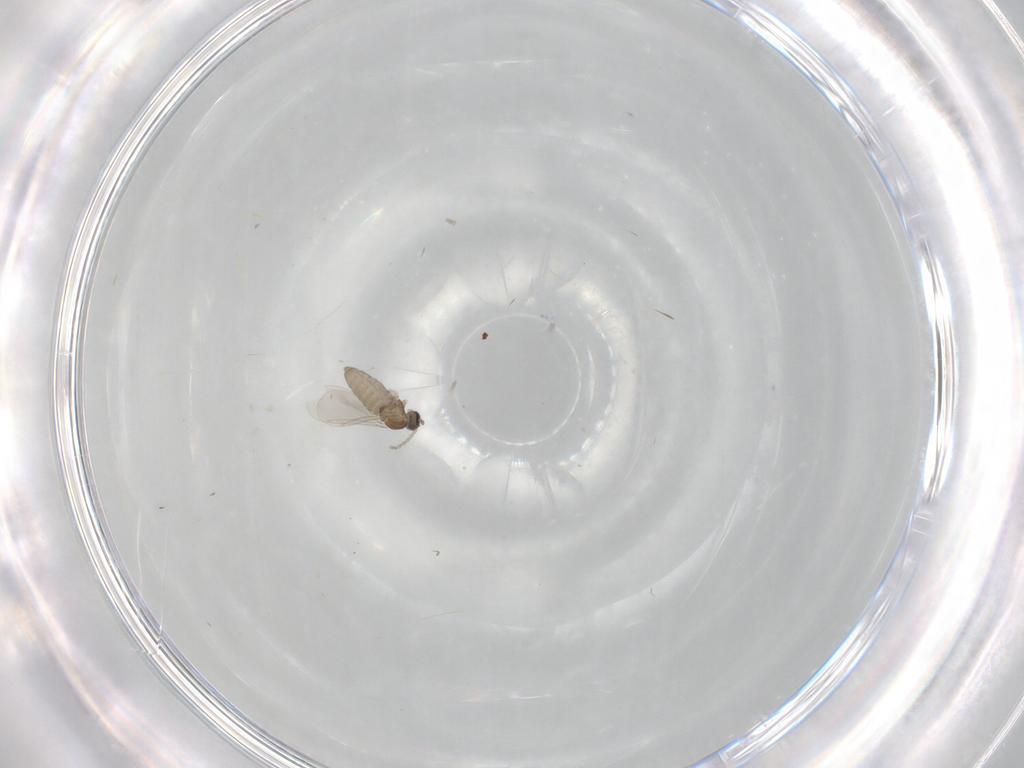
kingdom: Animalia
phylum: Arthropoda
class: Insecta
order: Diptera
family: Cecidomyiidae
